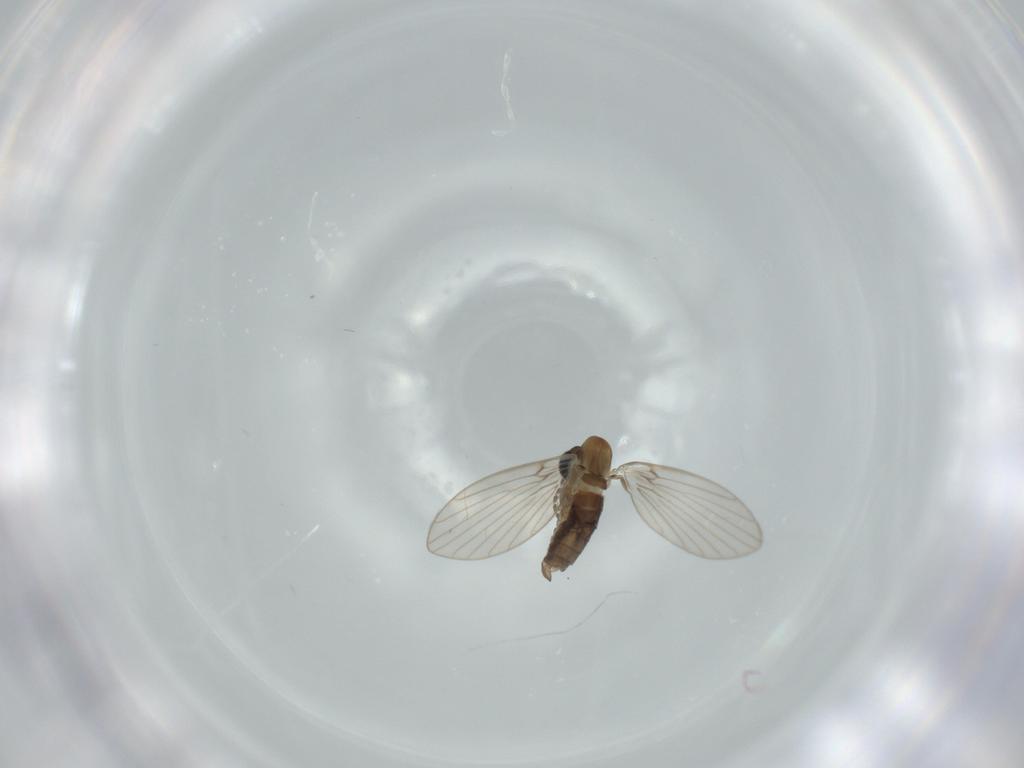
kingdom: Animalia
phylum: Arthropoda
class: Insecta
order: Diptera
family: Psychodidae
